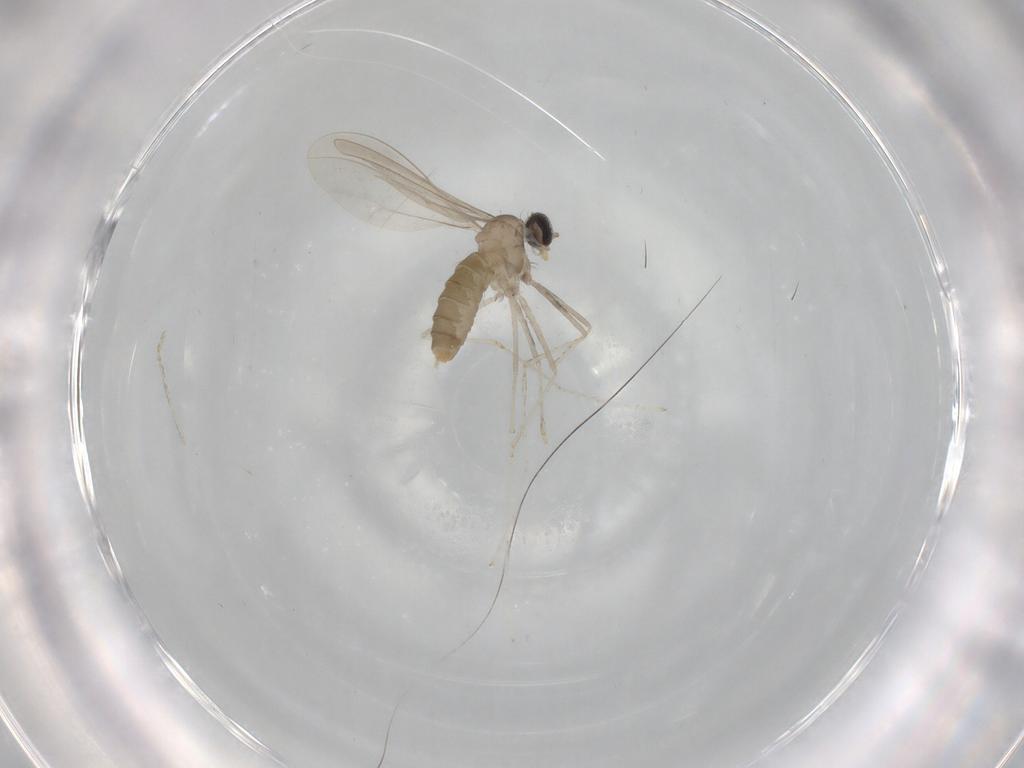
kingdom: Animalia
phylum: Arthropoda
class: Insecta
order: Diptera
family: Cecidomyiidae
